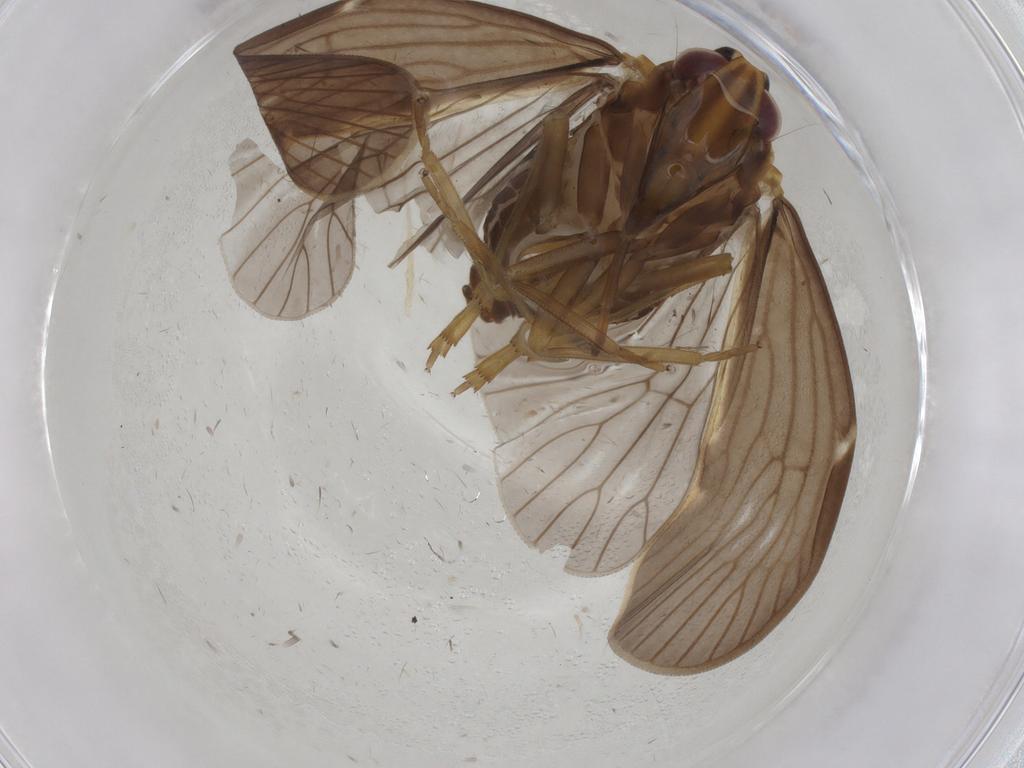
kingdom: Animalia
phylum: Arthropoda
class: Insecta
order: Hemiptera
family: Cixiidae
